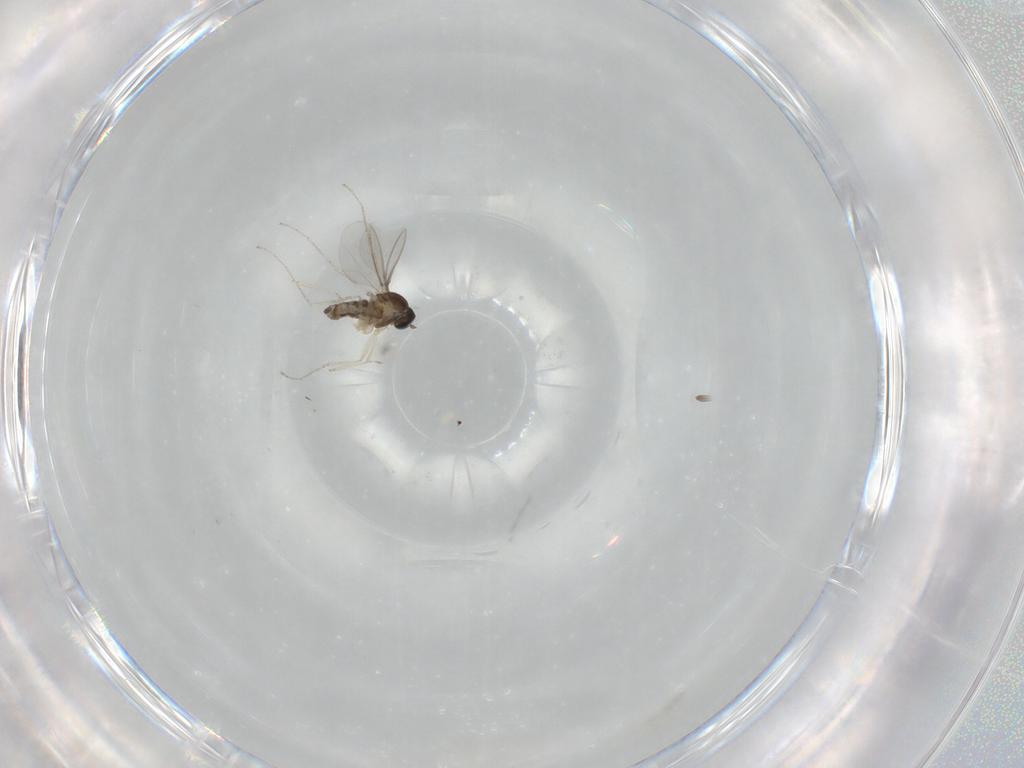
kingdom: Animalia
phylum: Arthropoda
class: Insecta
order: Diptera
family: Cecidomyiidae
